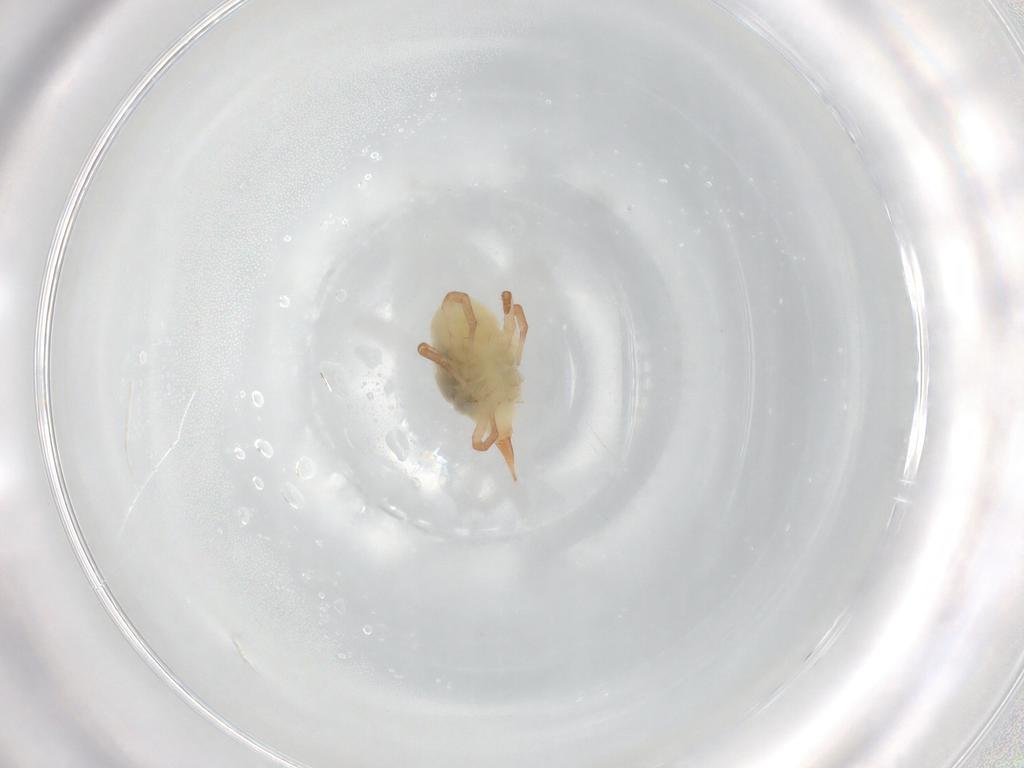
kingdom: Animalia
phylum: Arthropoda
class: Arachnida
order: Trombidiformes
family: Bdellidae
